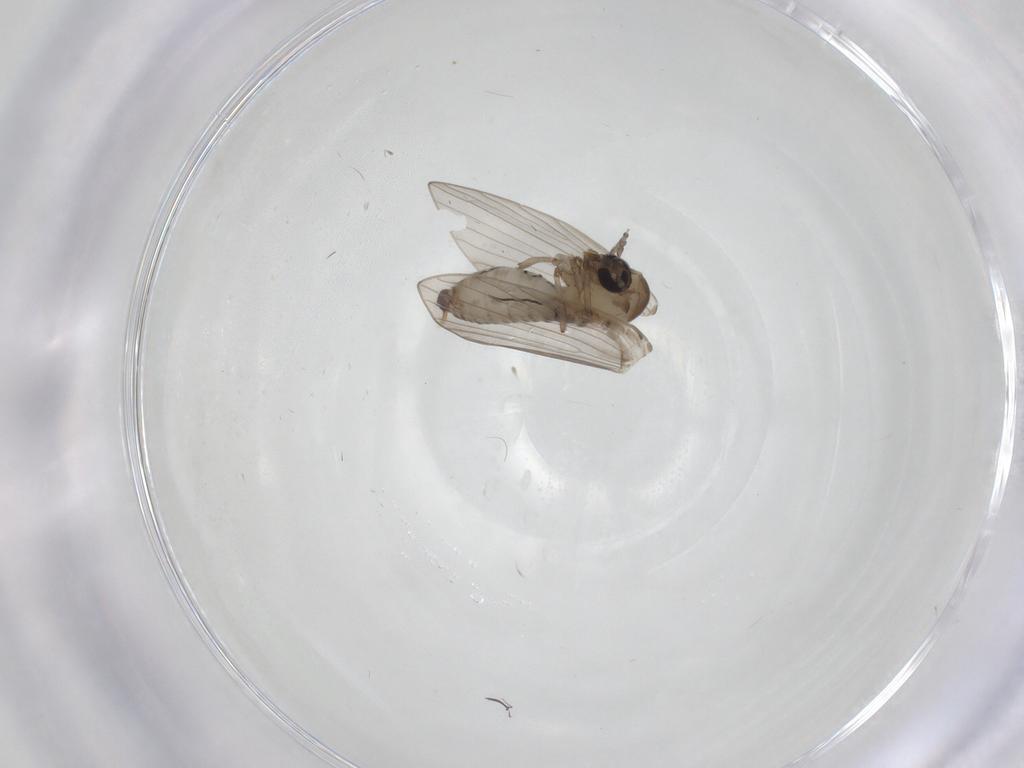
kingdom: Animalia
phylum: Arthropoda
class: Insecta
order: Diptera
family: Psychodidae
